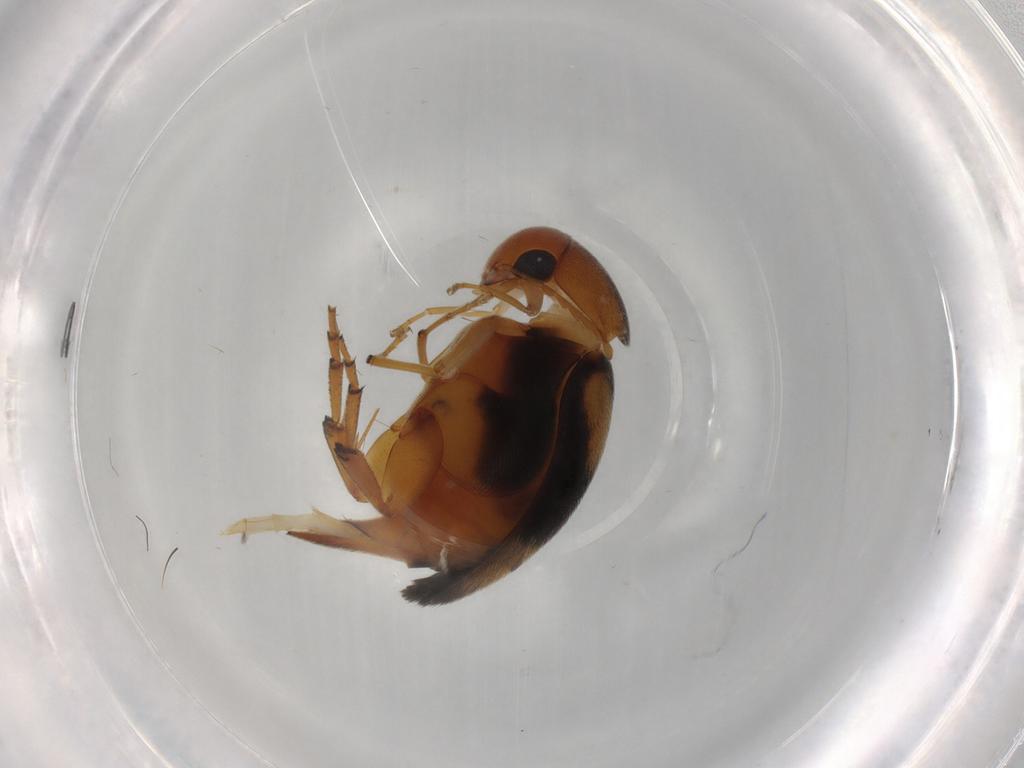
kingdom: Animalia
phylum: Arthropoda
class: Insecta
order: Coleoptera
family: Mordellidae
